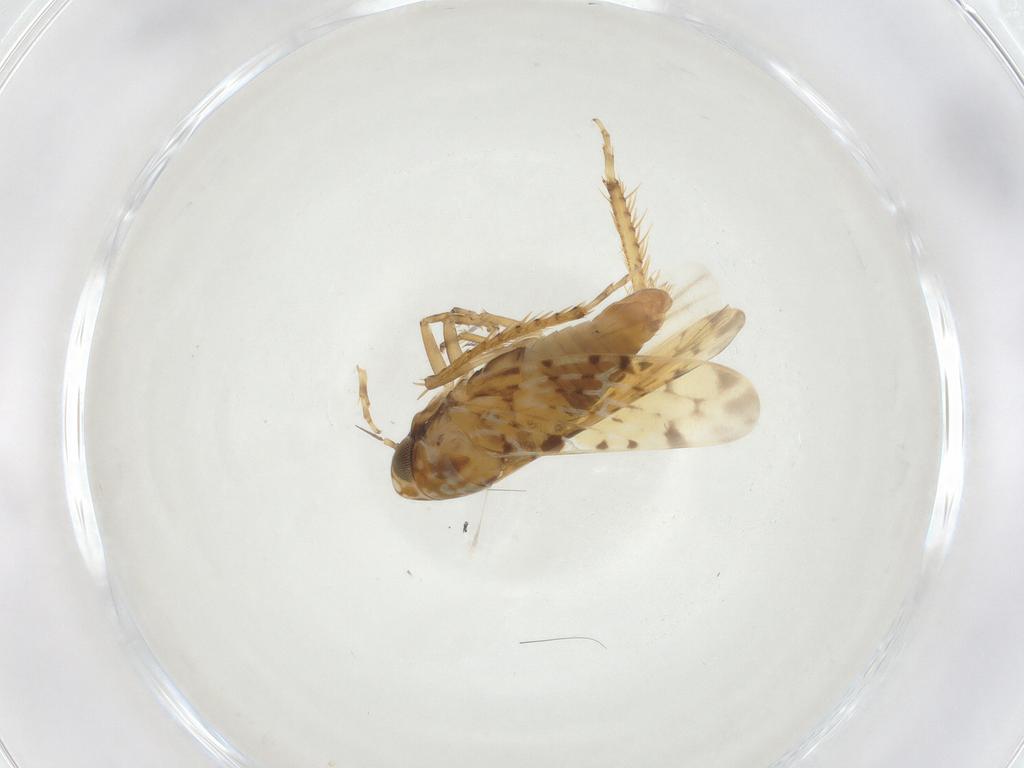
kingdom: Animalia
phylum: Arthropoda
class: Insecta
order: Hemiptera
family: Cicadellidae
